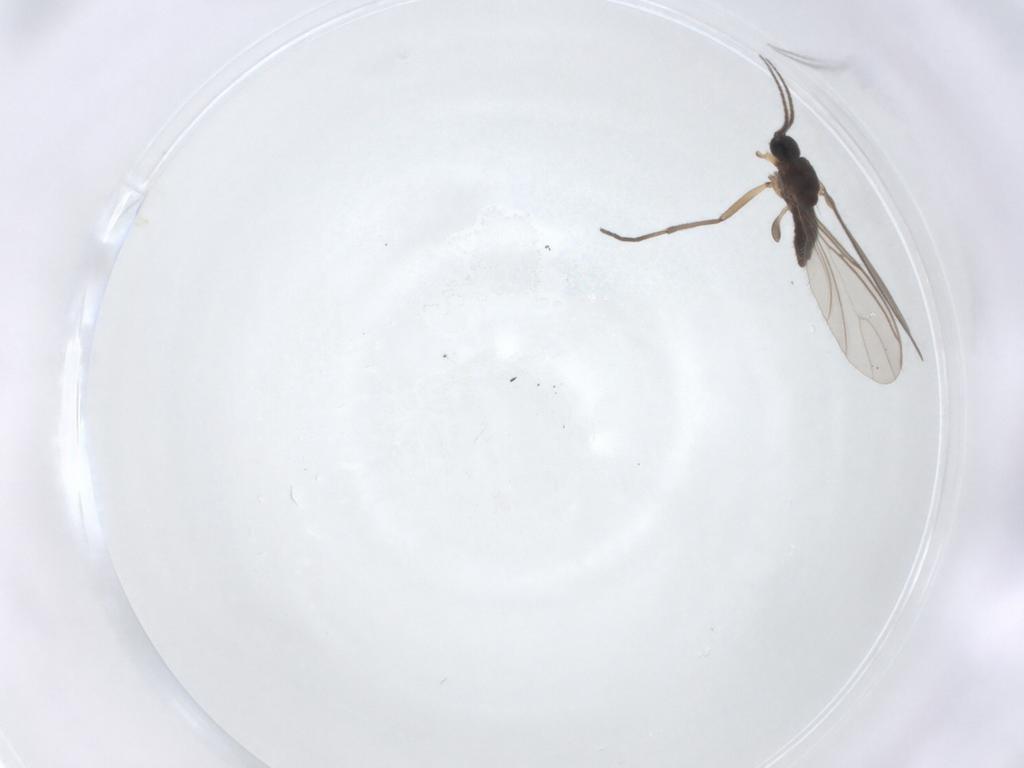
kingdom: Animalia
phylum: Arthropoda
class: Insecta
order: Diptera
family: Sciaridae
